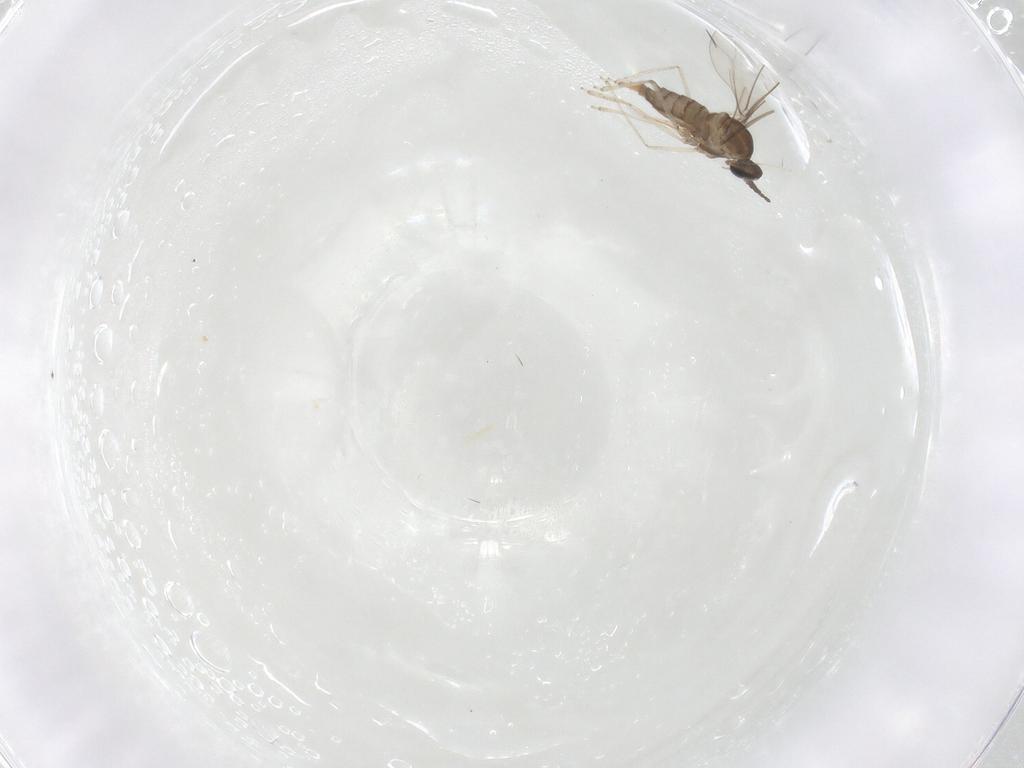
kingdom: Animalia
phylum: Arthropoda
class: Insecta
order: Diptera
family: Cecidomyiidae
